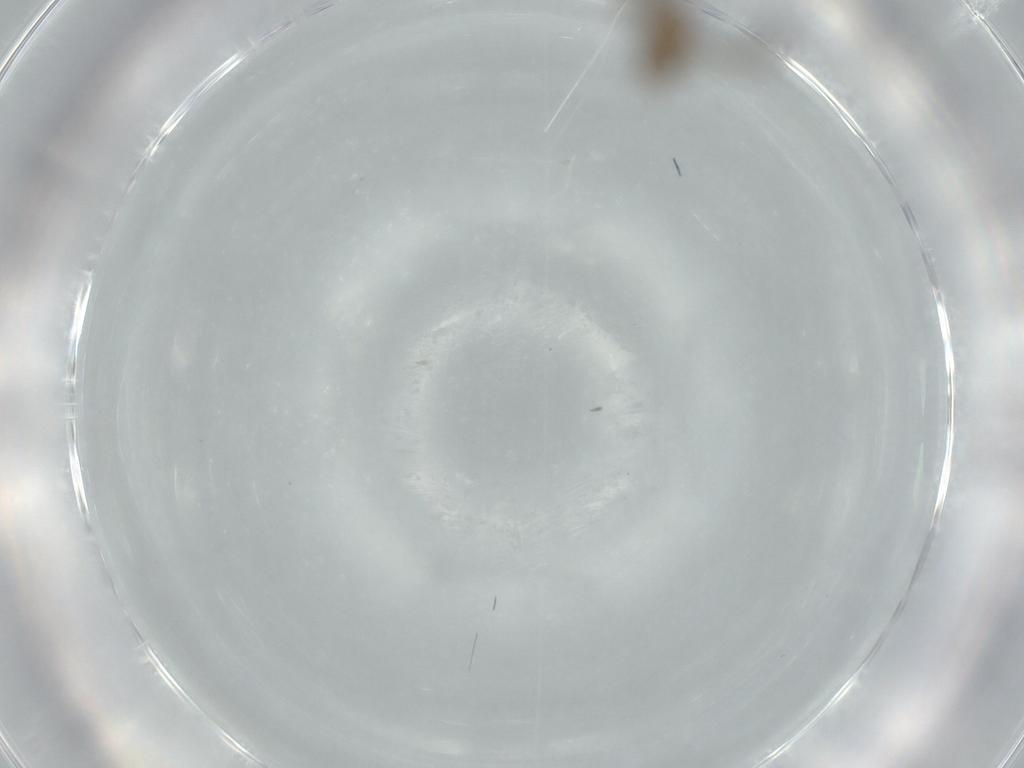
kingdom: Animalia
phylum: Arthropoda
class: Insecta
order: Diptera
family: Chironomidae
